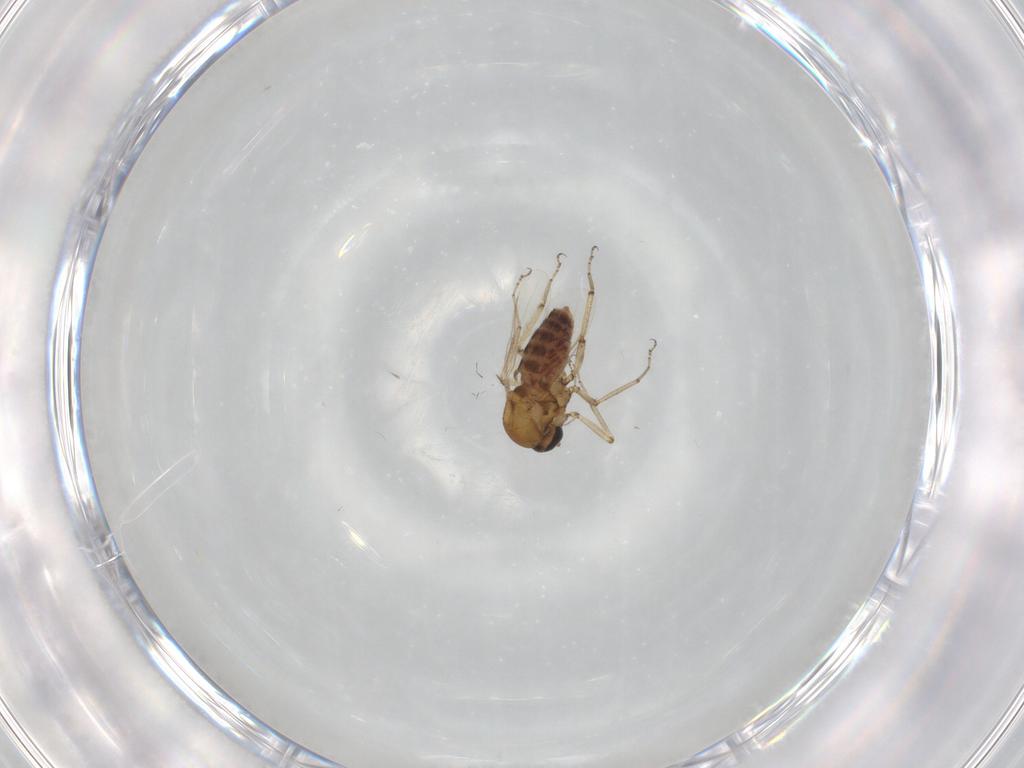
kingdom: Animalia
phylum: Arthropoda
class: Insecta
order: Diptera
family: Ceratopogonidae
